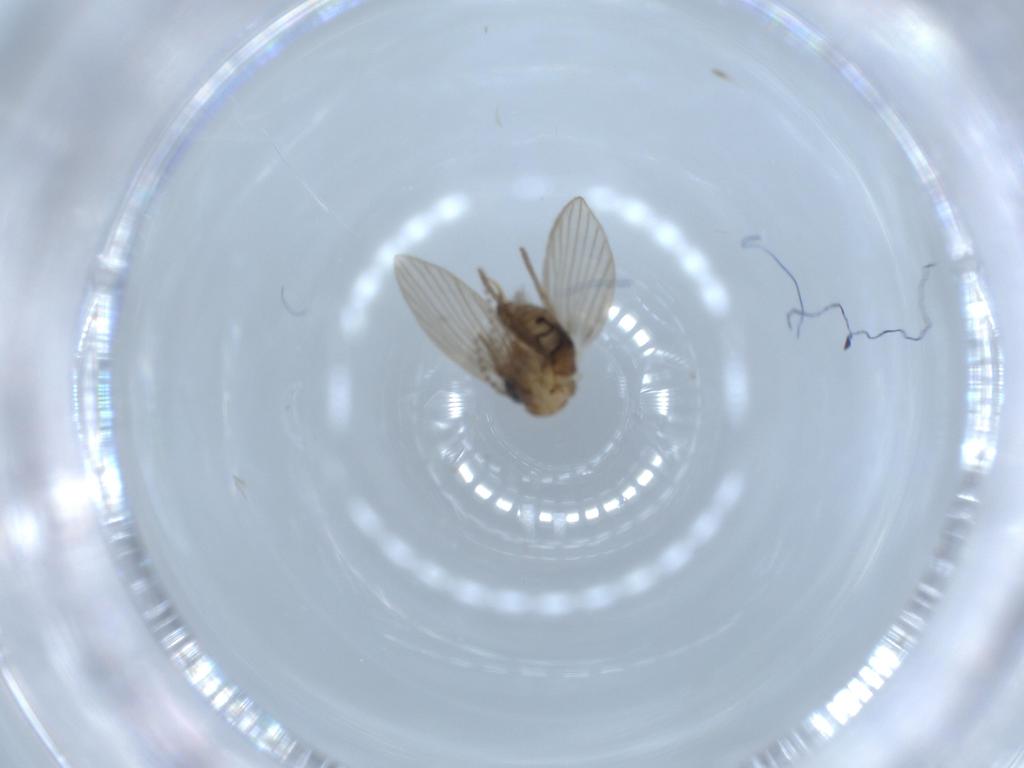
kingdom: Animalia
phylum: Arthropoda
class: Insecta
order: Diptera
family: Psychodidae
